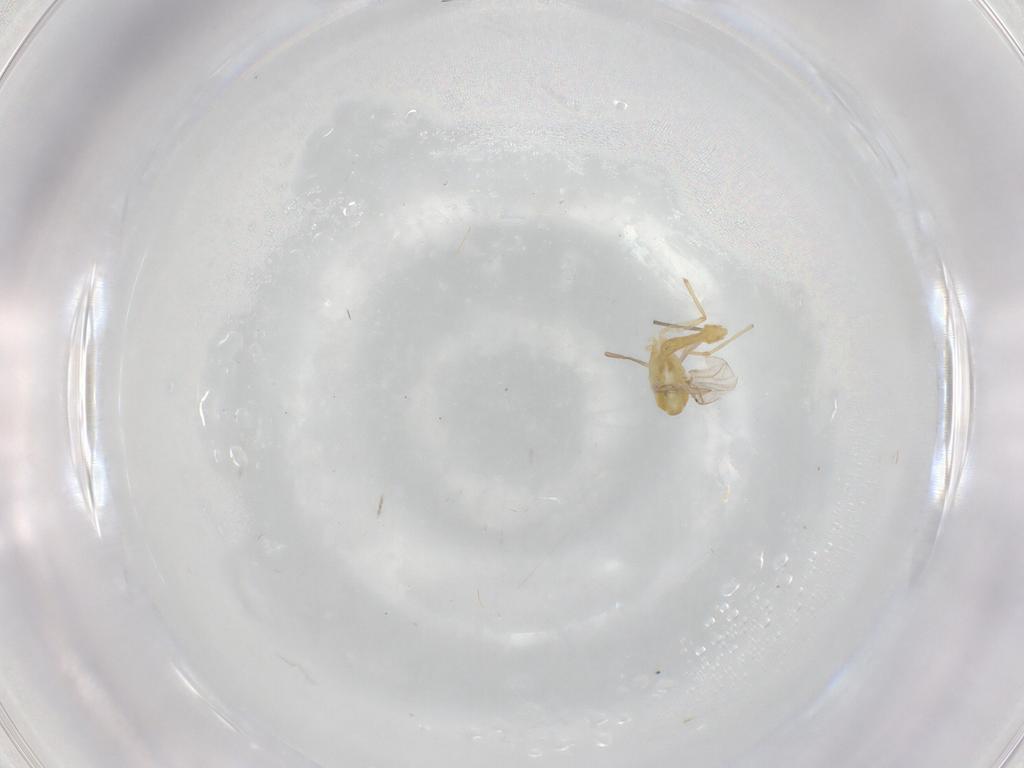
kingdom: Animalia
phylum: Arthropoda
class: Insecta
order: Diptera
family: Chironomidae
